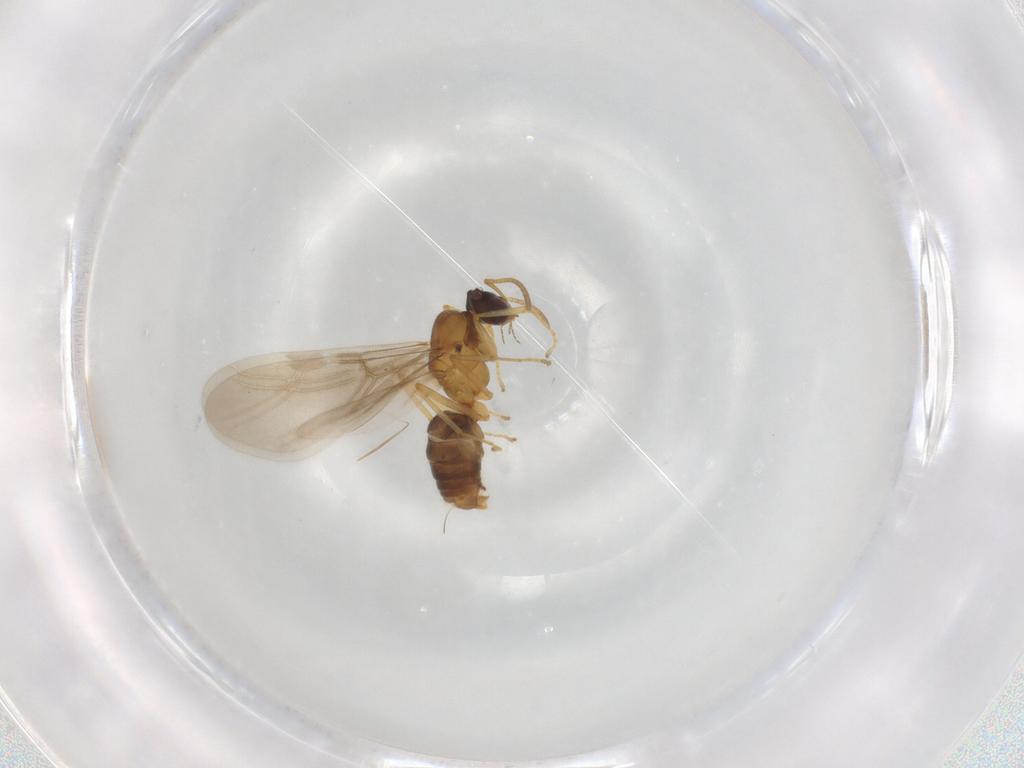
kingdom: Animalia
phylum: Arthropoda
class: Insecta
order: Hymenoptera
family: Formicidae
